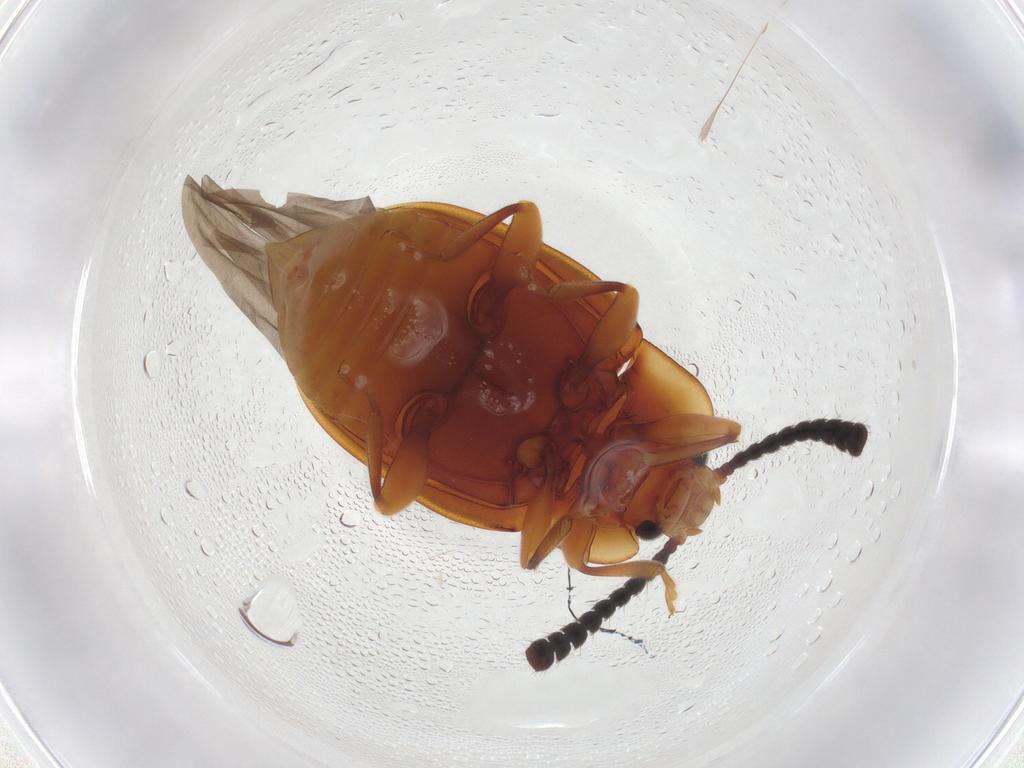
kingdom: Animalia
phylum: Arthropoda
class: Insecta
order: Coleoptera
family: Endomychidae
